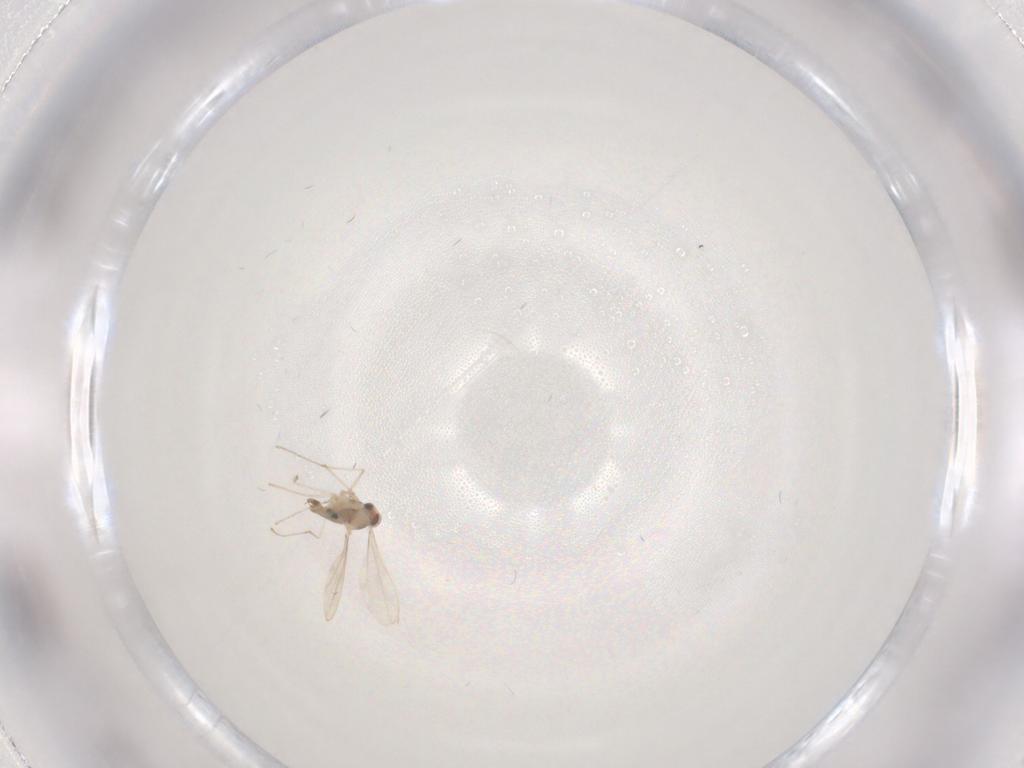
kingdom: Animalia
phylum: Arthropoda
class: Insecta
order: Diptera
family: Cecidomyiidae
